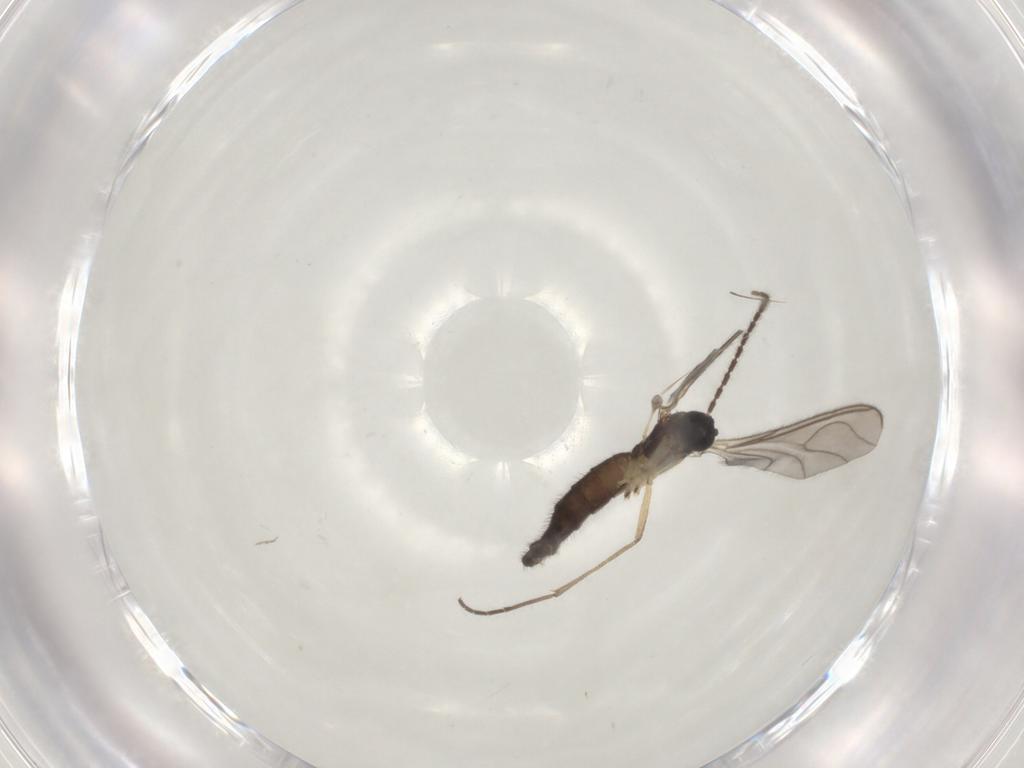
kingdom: Animalia
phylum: Arthropoda
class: Insecta
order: Diptera
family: Sciaridae
